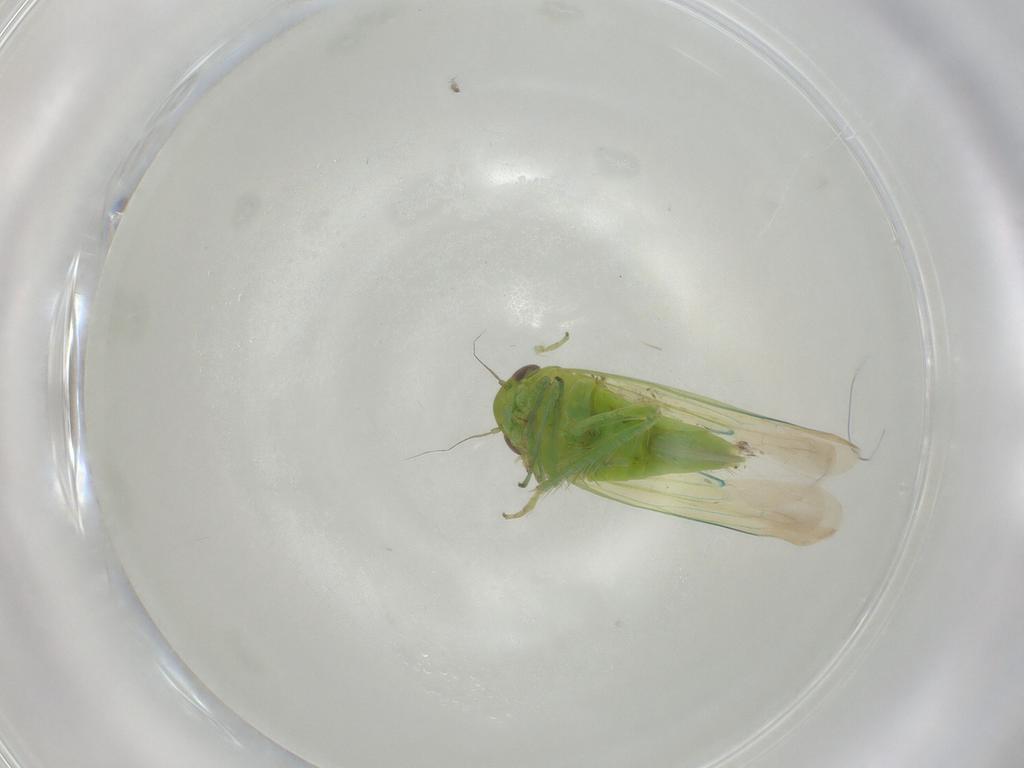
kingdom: Animalia
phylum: Arthropoda
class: Insecta
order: Hemiptera
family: Cicadellidae
